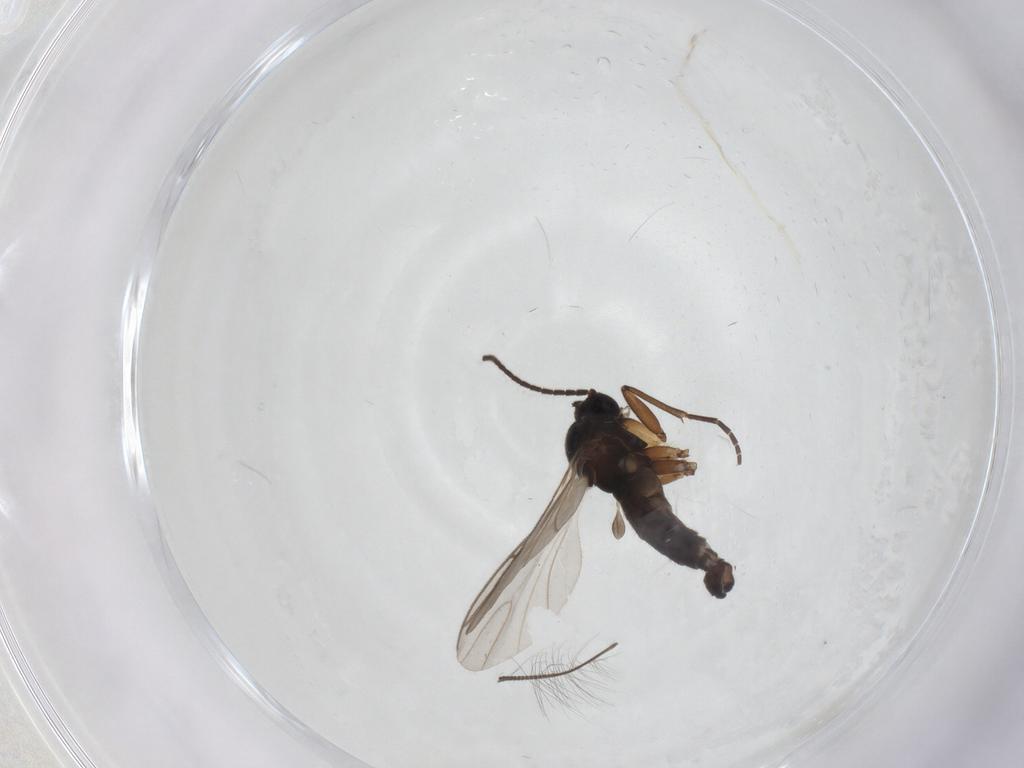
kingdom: Animalia
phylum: Arthropoda
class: Insecta
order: Diptera
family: Sciaridae
